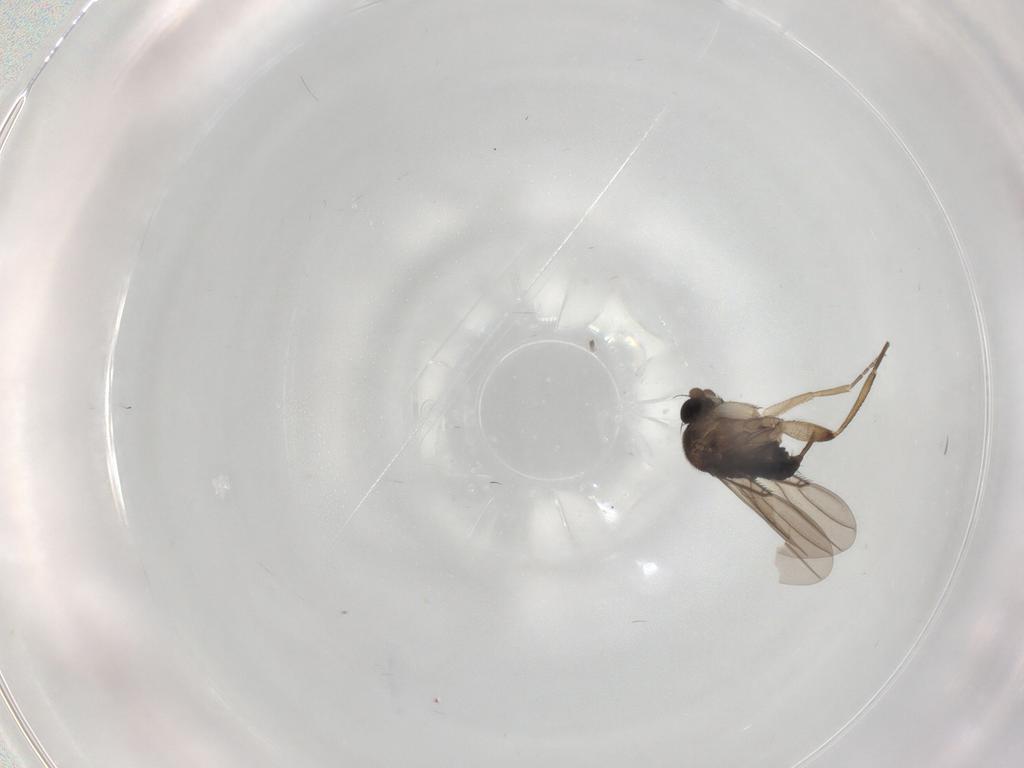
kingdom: Animalia
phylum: Arthropoda
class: Insecta
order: Diptera
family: Phoridae
